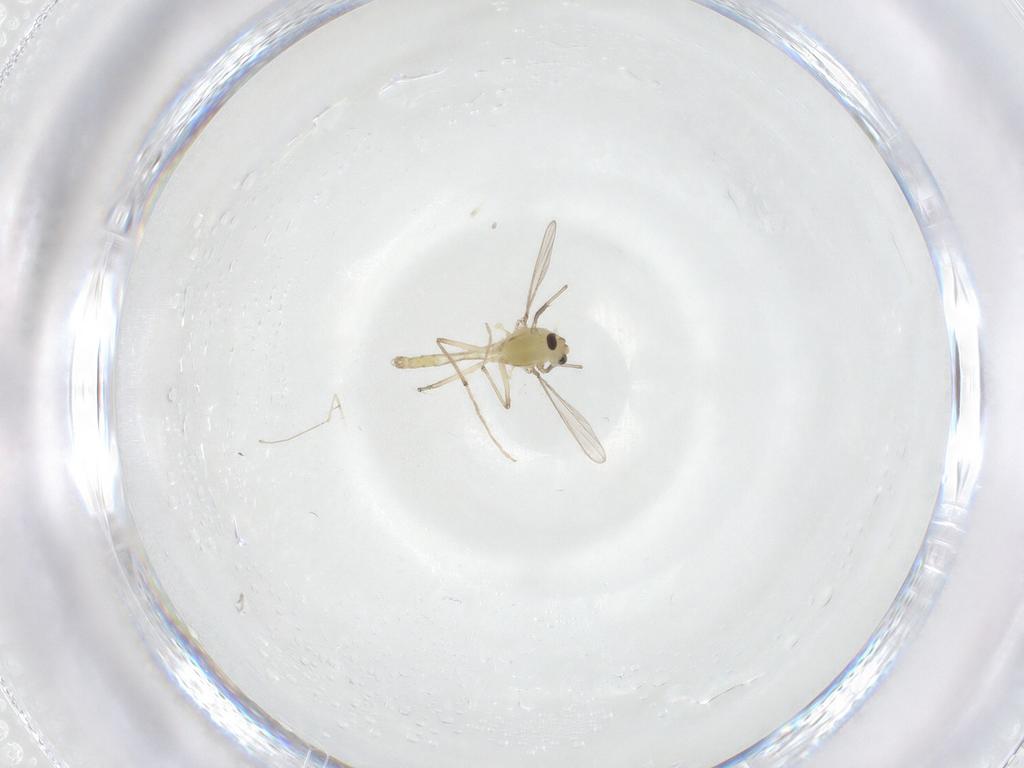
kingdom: Animalia
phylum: Arthropoda
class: Insecta
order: Diptera
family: Chironomidae
